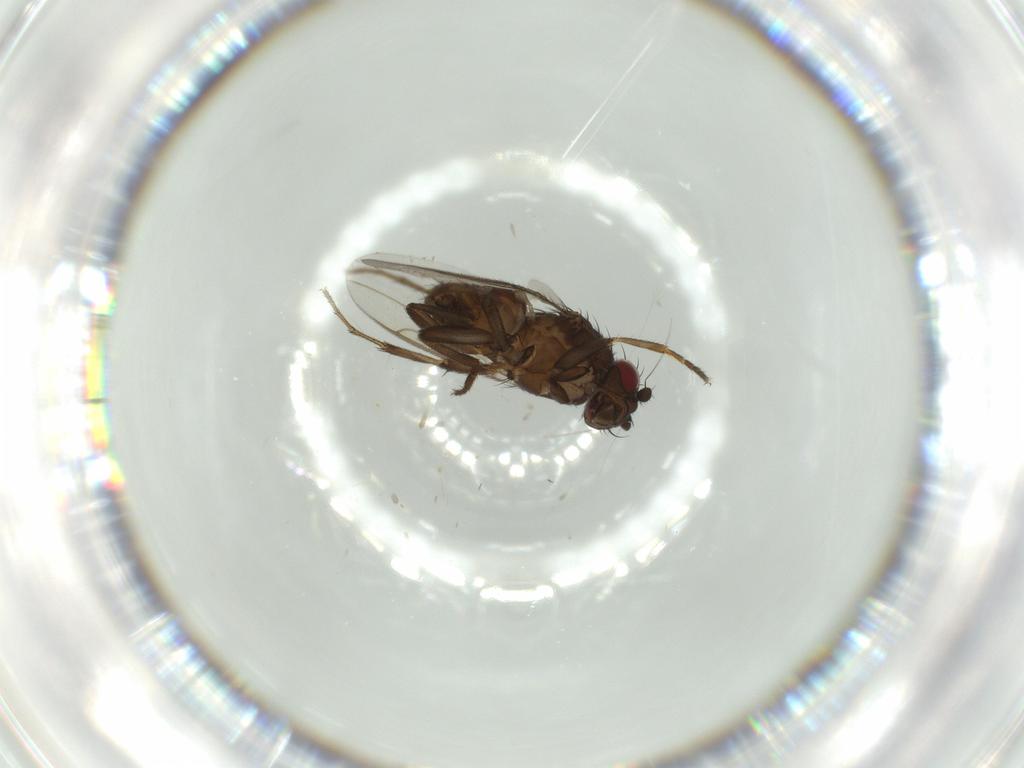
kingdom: Animalia
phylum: Arthropoda
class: Insecta
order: Diptera
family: Sphaeroceridae
